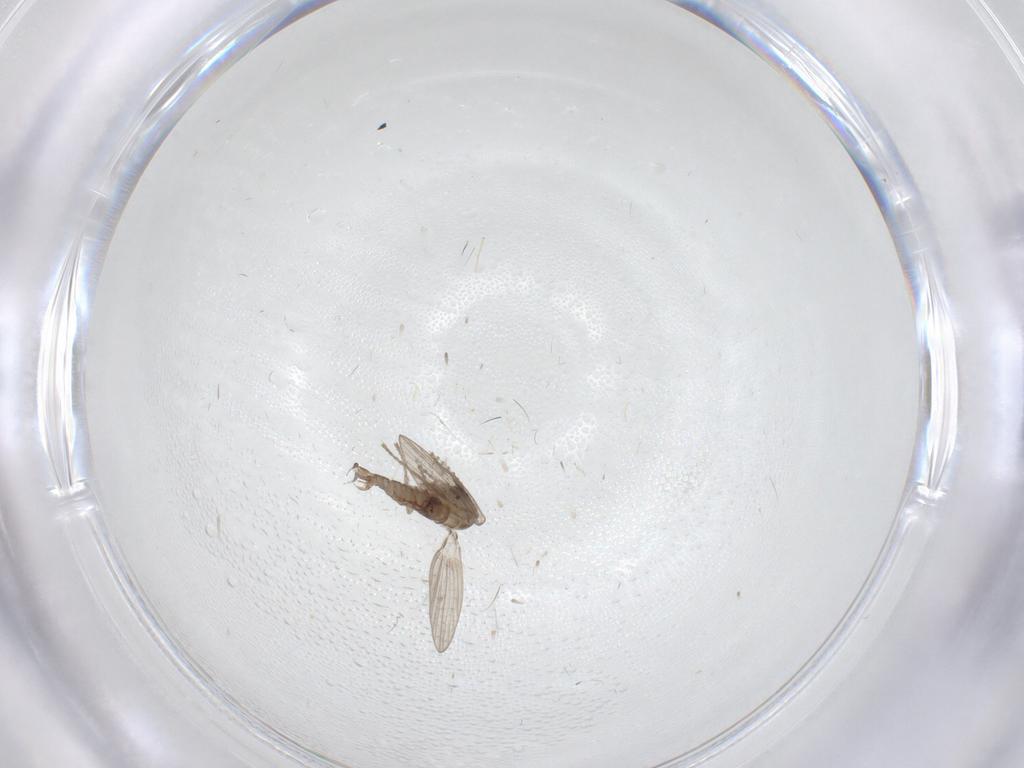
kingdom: Animalia
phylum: Arthropoda
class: Insecta
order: Diptera
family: Psychodidae
